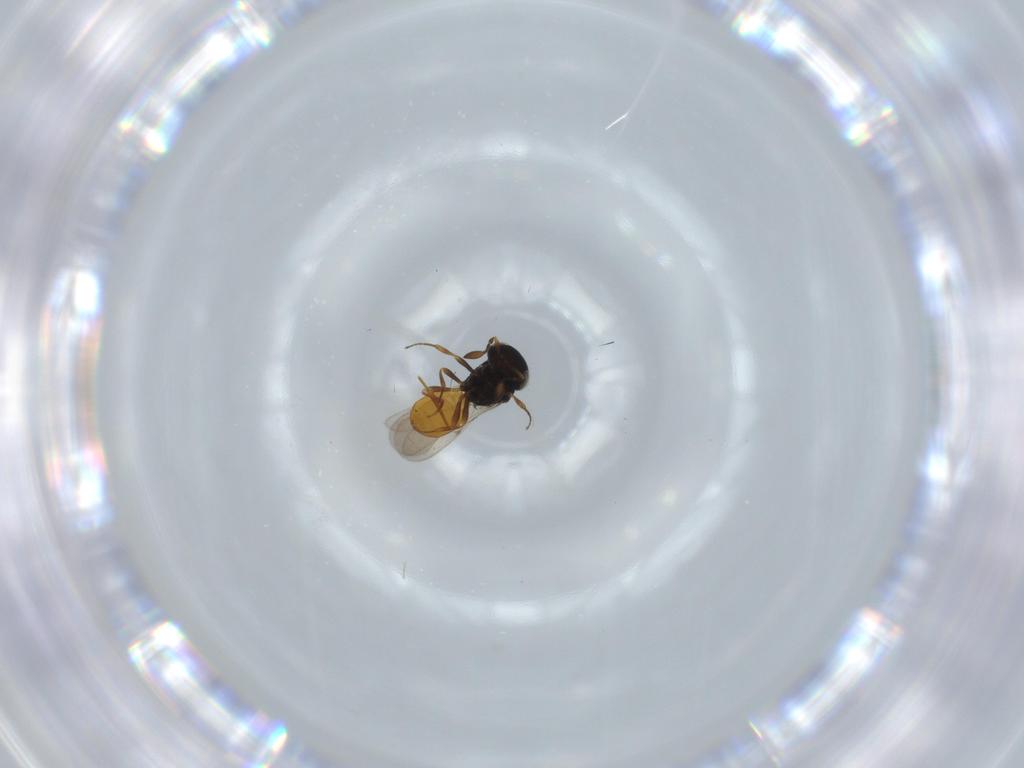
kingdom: Animalia
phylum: Arthropoda
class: Insecta
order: Hymenoptera
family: Scelionidae
